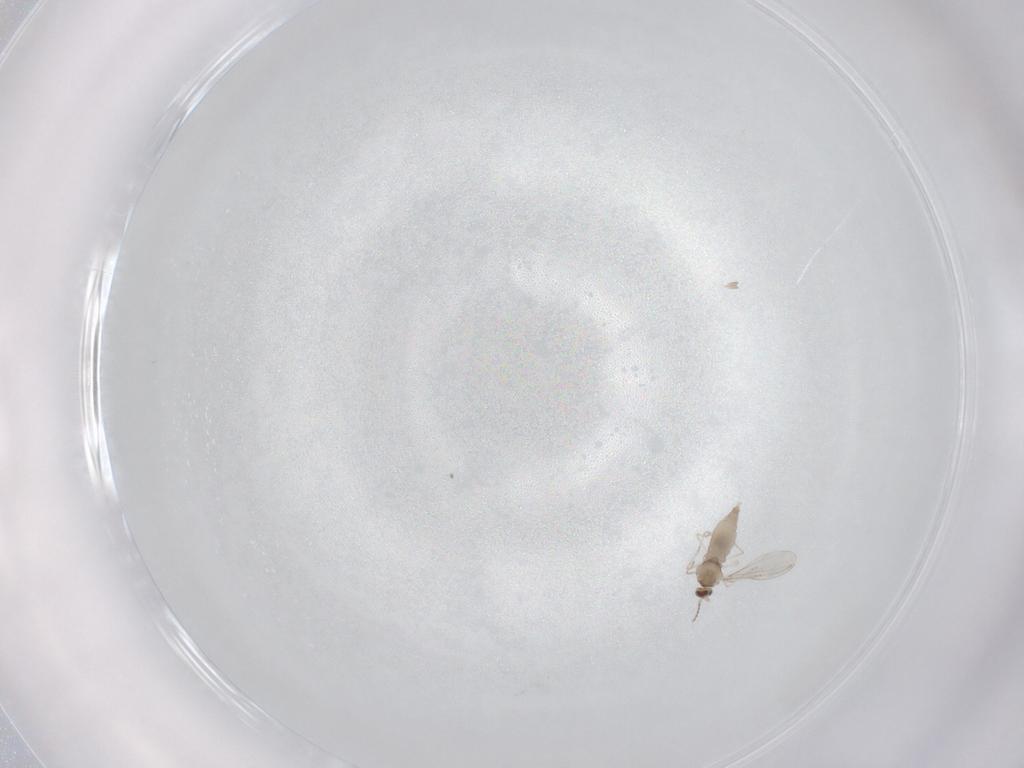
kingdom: Animalia
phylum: Arthropoda
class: Insecta
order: Diptera
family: Cecidomyiidae
